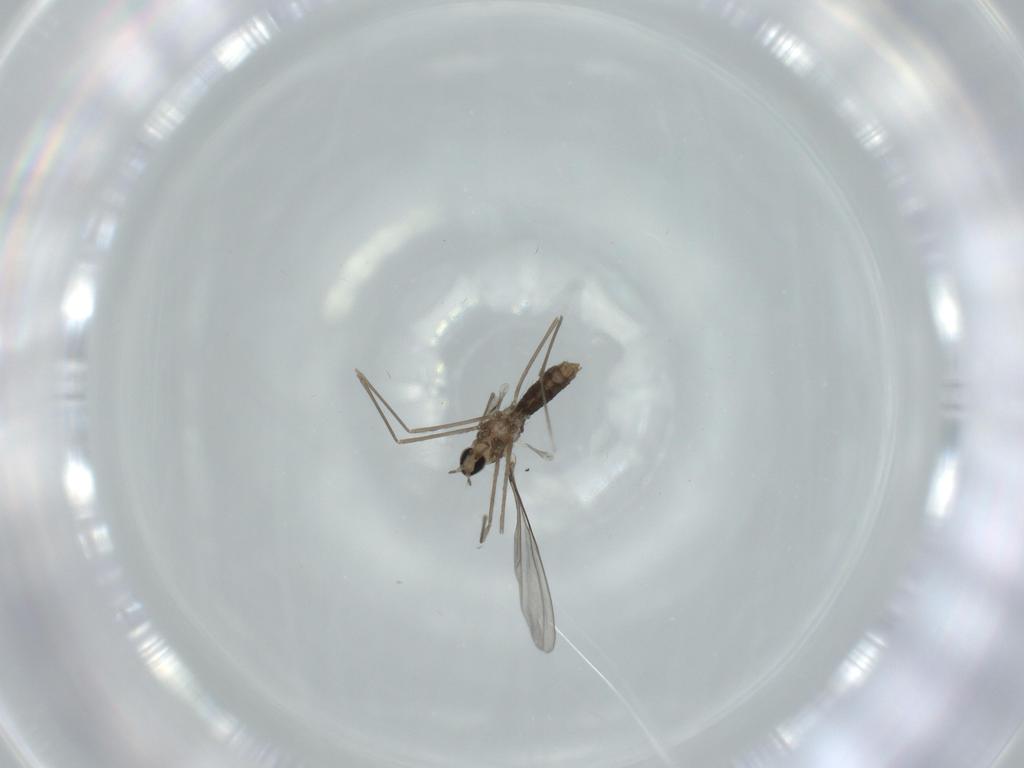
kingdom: Animalia
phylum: Arthropoda
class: Insecta
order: Diptera
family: Cecidomyiidae
